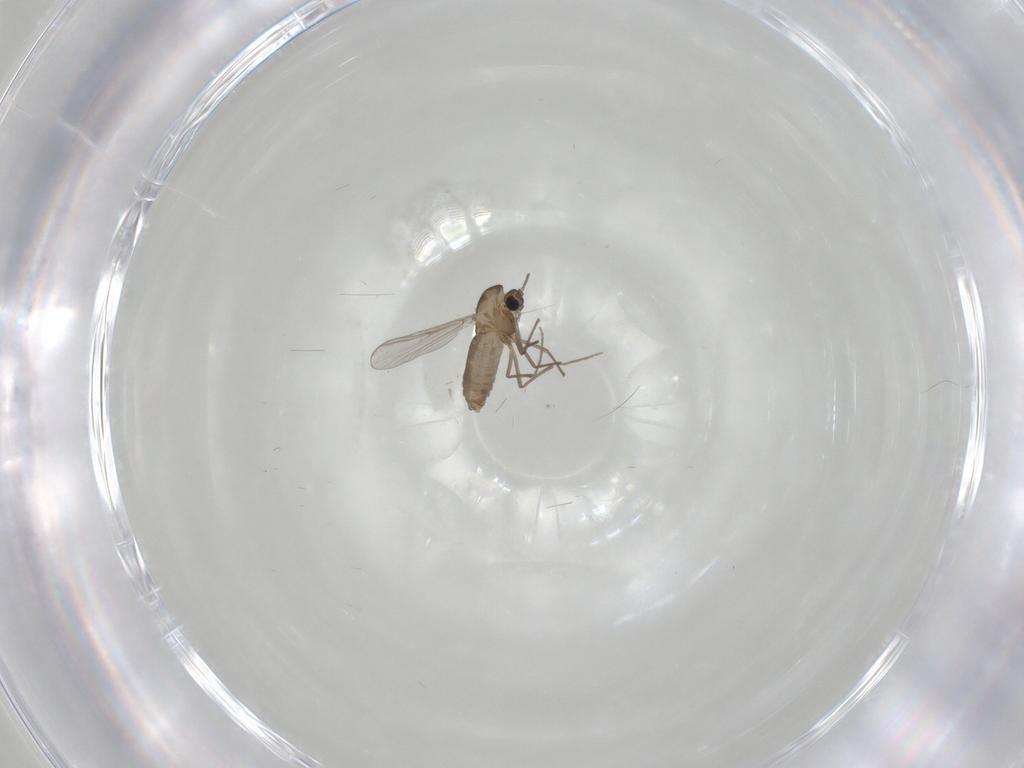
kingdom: Animalia
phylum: Arthropoda
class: Insecta
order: Diptera
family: Chironomidae
